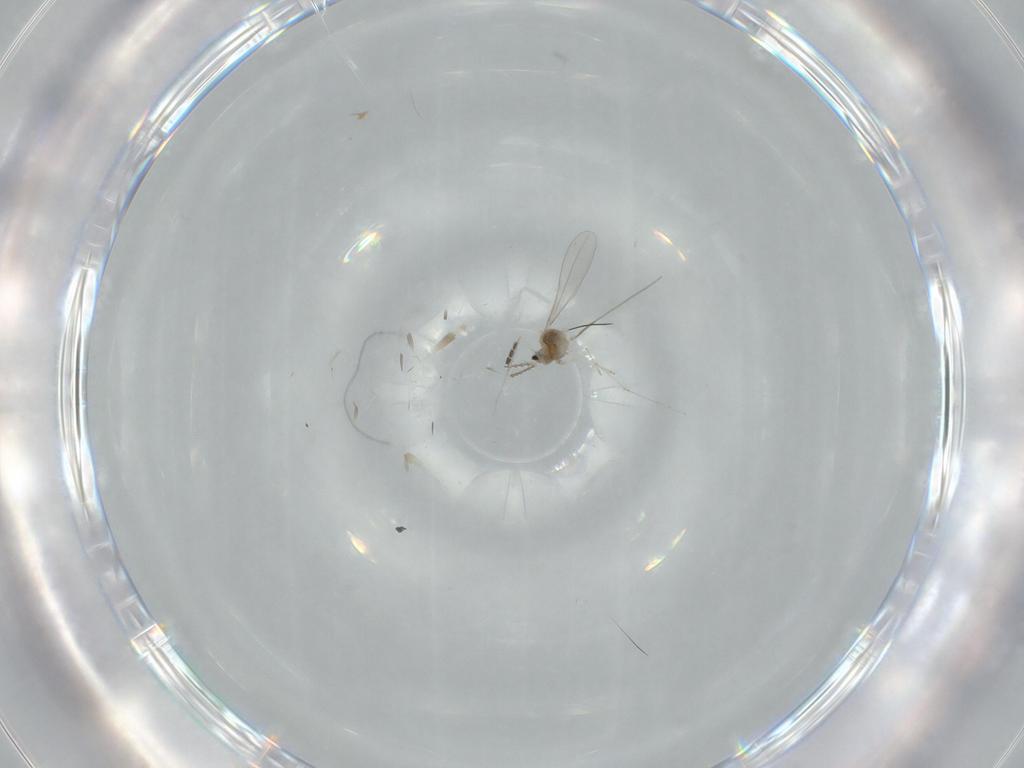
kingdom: Animalia
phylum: Arthropoda
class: Insecta
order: Diptera
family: Cecidomyiidae
